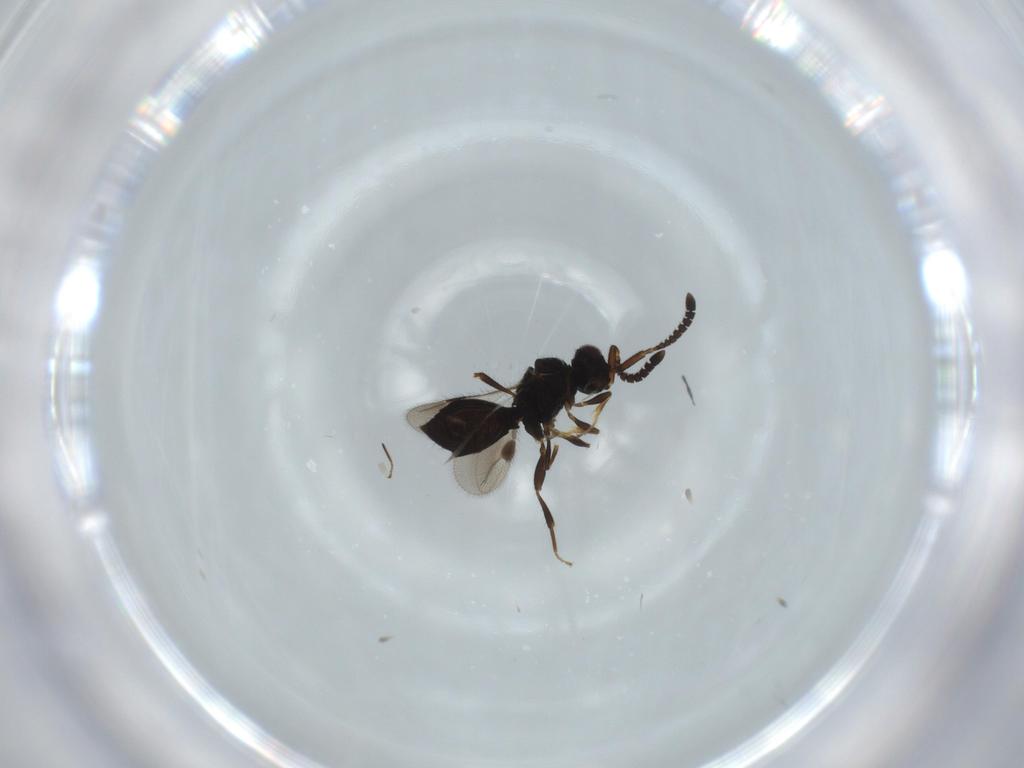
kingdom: Animalia
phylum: Arthropoda
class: Insecta
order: Hymenoptera
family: Megaspilidae
